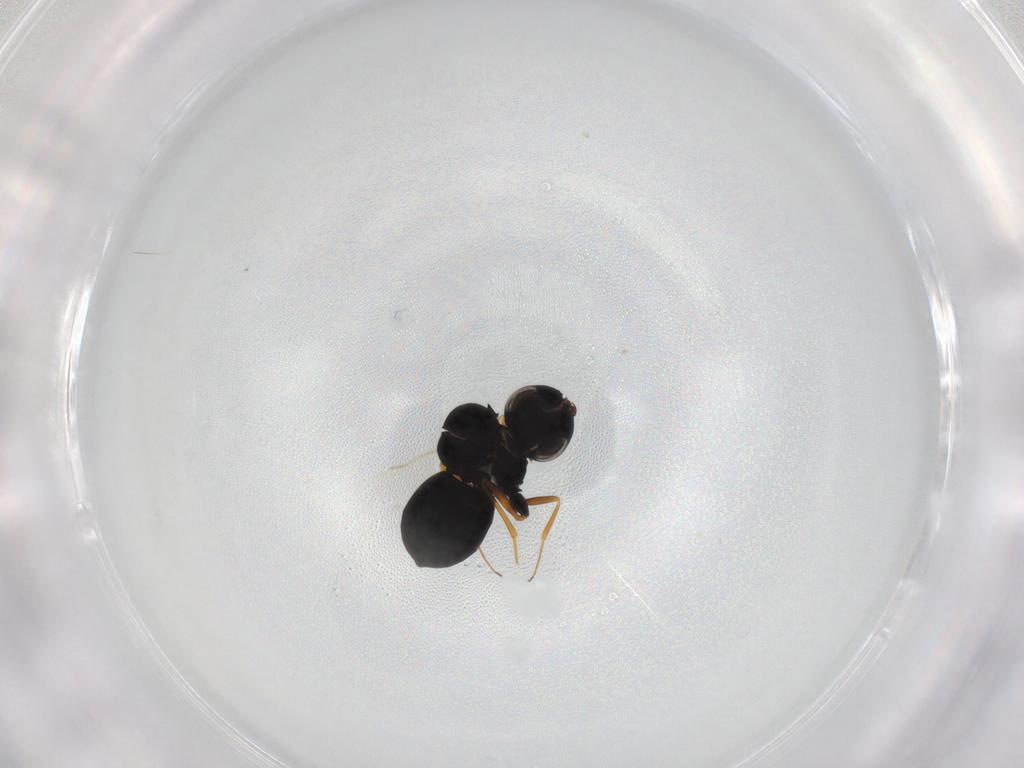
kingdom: Animalia
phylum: Arthropoda
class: Insecta
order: Hymenoptera
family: Scelionidae
